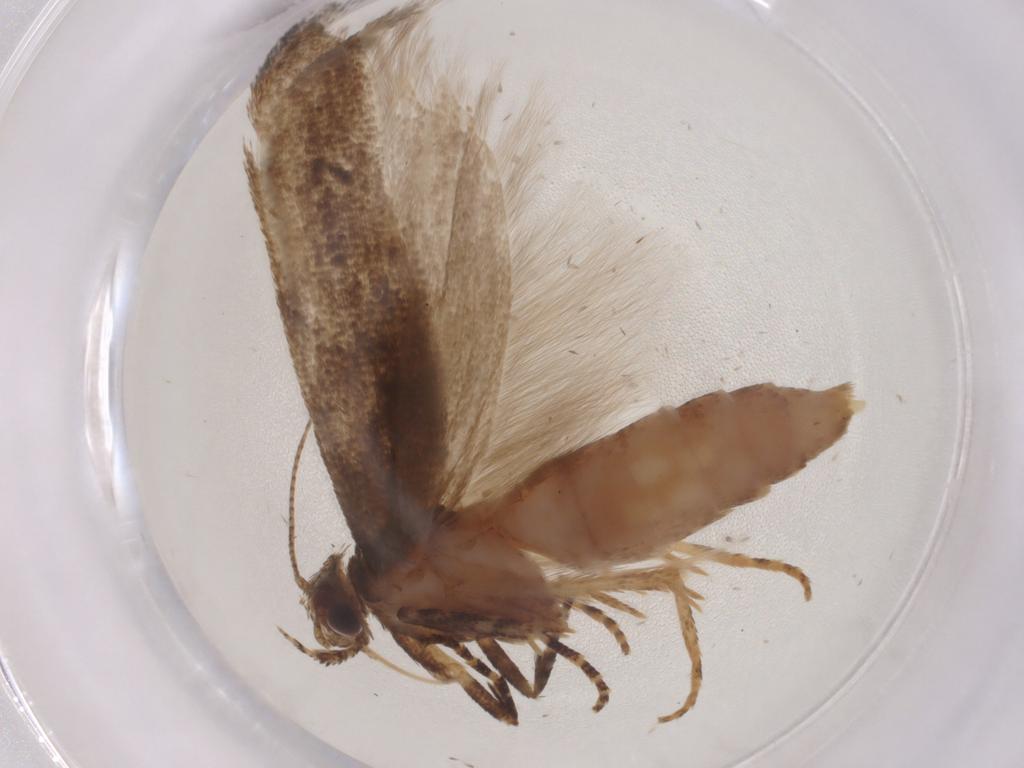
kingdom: Animalia
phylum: Arthropoda
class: Insecta
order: Lepidoptera
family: Gelechiidae
